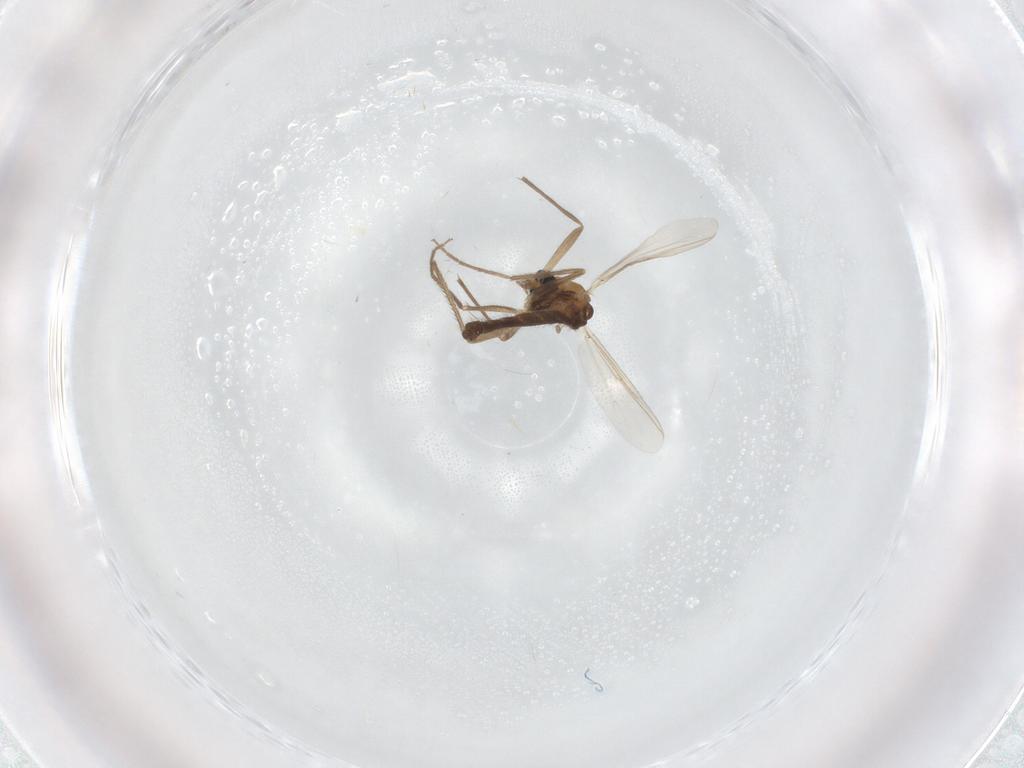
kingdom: Animalia
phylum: Arthropoda
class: Insecta
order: Diptera
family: Chironomidae
